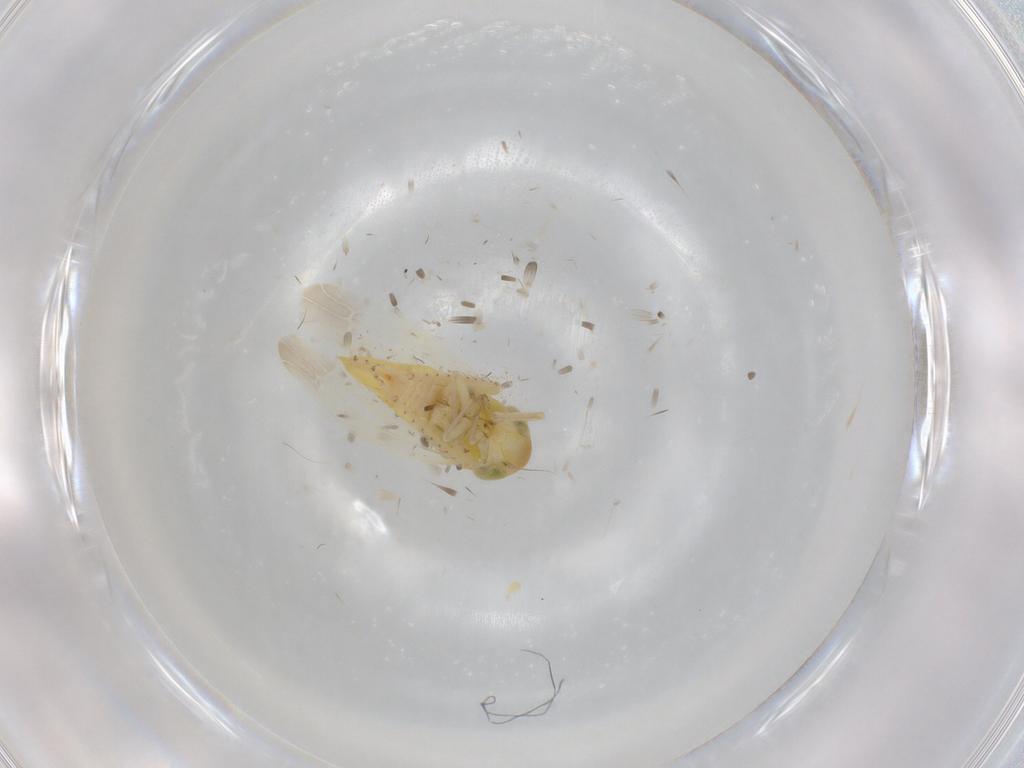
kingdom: Animalia
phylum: Arthropoda
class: Insecta
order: Hemiptera
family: Cicadellidae
